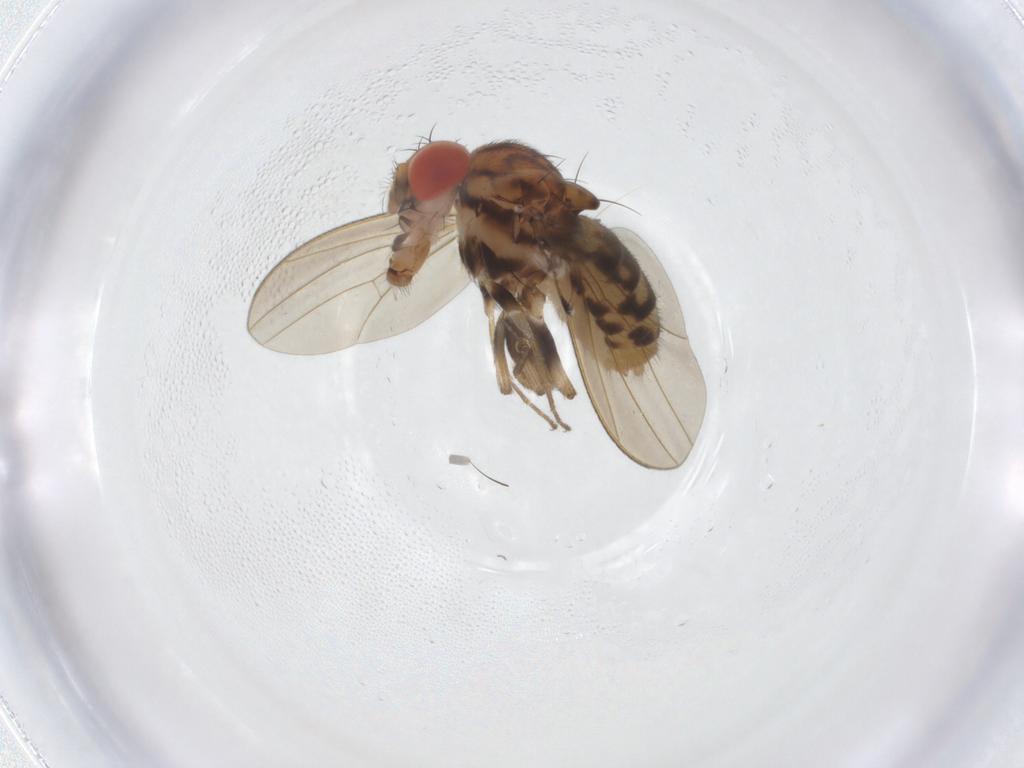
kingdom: Animalia
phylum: Arthropoda
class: Insecta
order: Diptera
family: Drosophilidae
